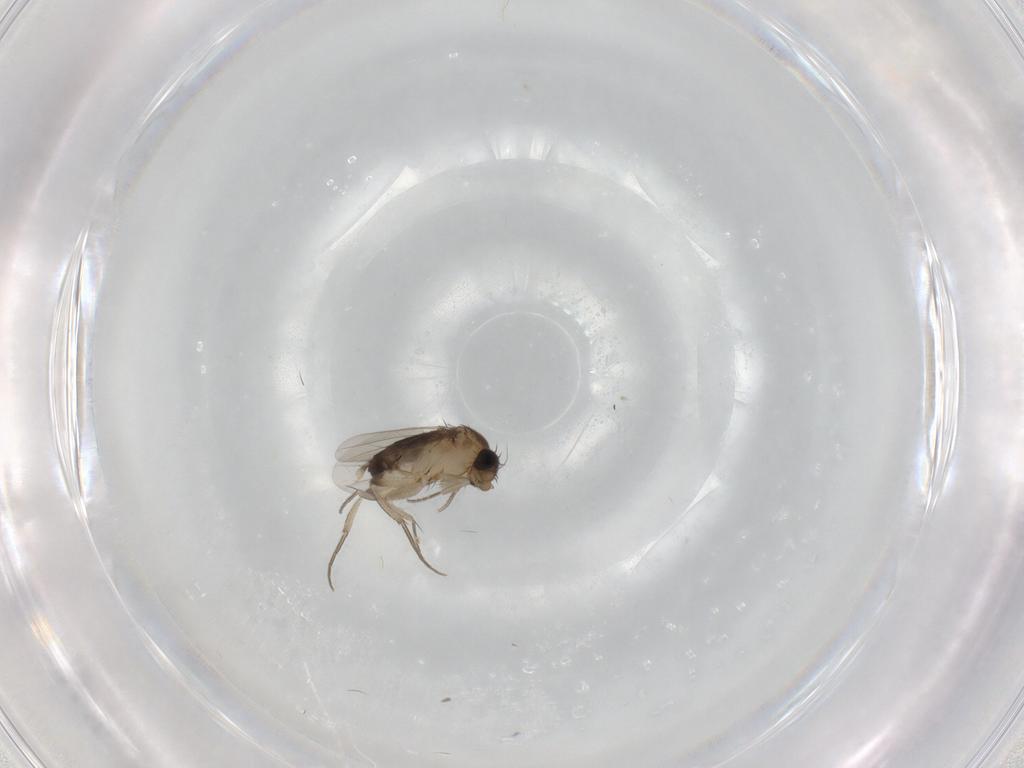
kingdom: Animalia
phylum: Arthropoda
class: Insecta
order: Diptera
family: Phoridae
